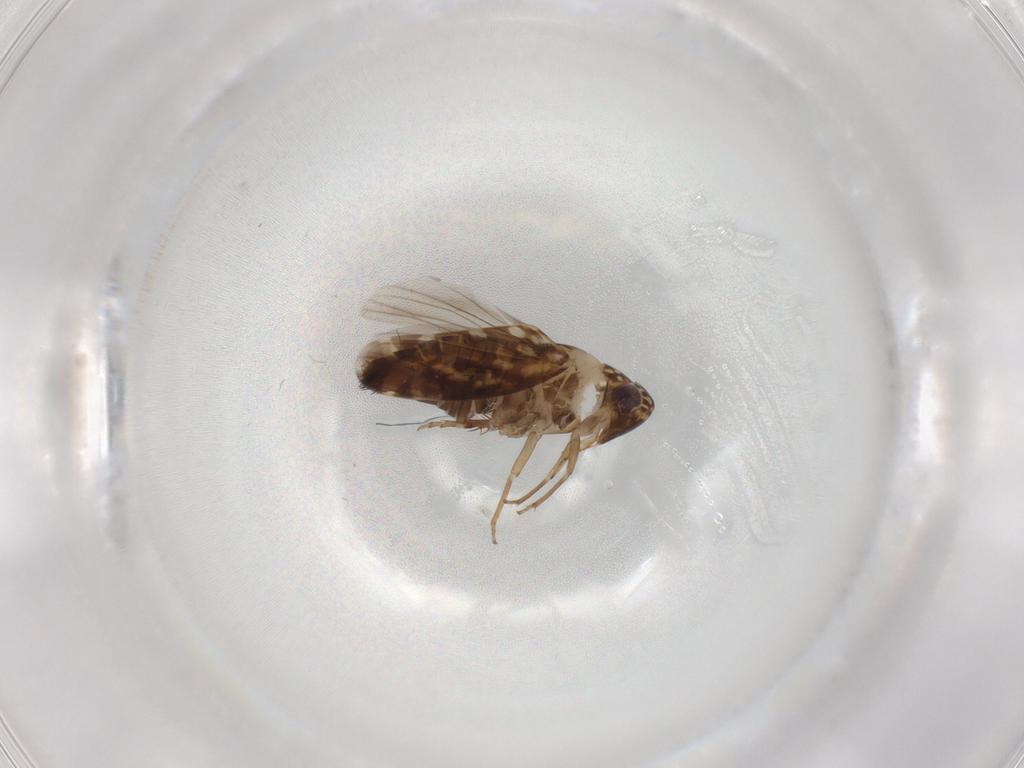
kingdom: Animalia
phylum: Arthropoda
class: Insecta
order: Hemiptera
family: Cicadellidae
